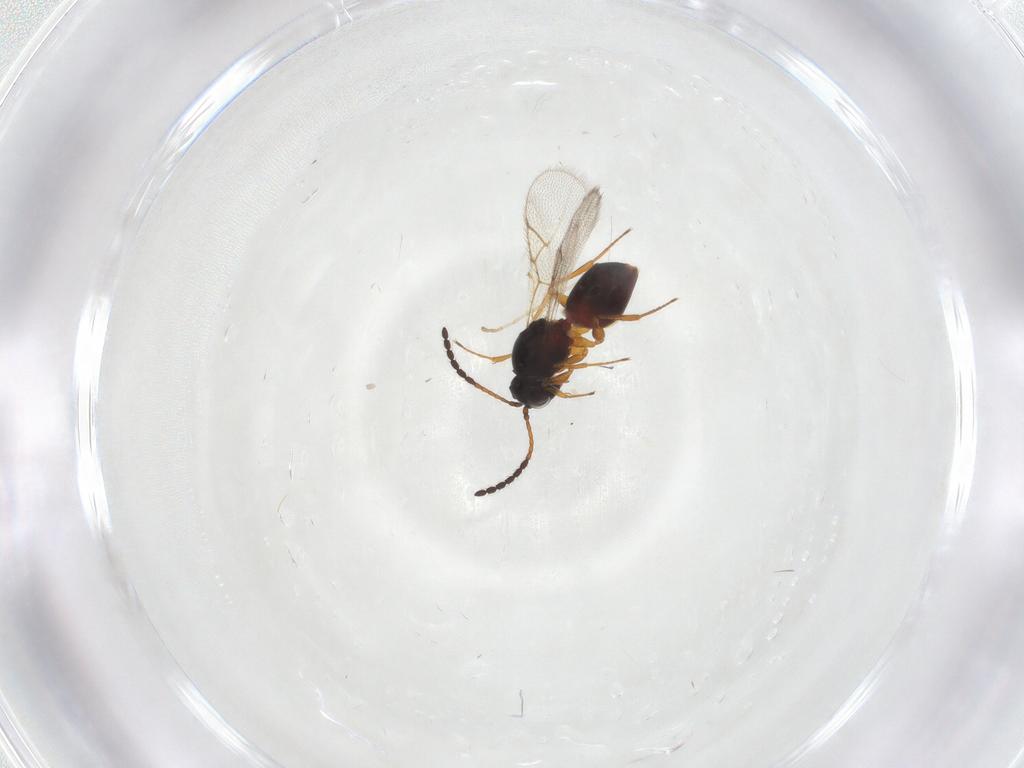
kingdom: Animalia
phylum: Arthropoda
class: Insecta
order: Hymenoptera
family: Figitidae
